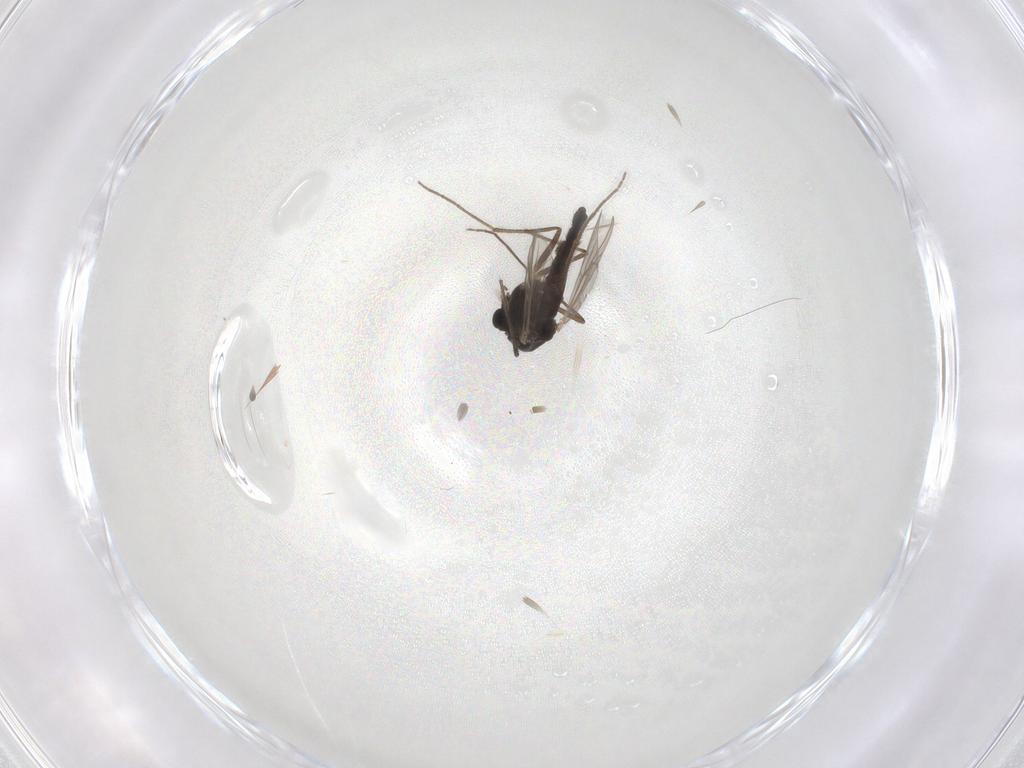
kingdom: Animalia
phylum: Arthropoda
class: Insecta
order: Diptera
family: Chironomidae
